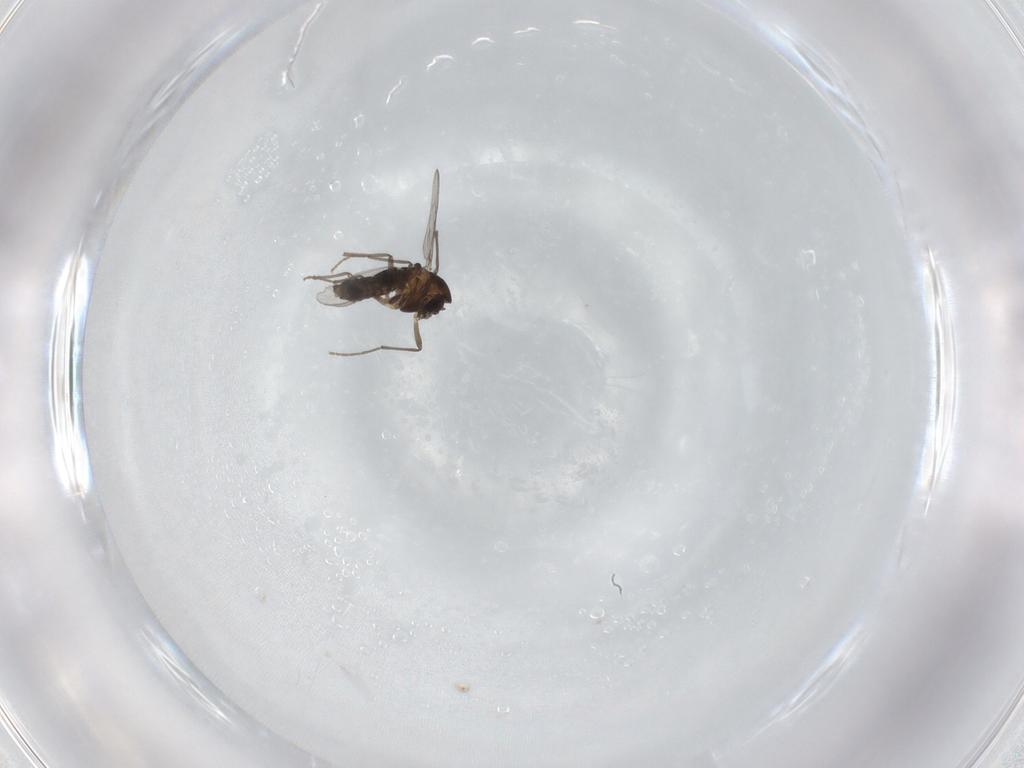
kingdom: Animalia
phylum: Arthropoda
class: Insecta
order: Diptera
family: Chironomidae
